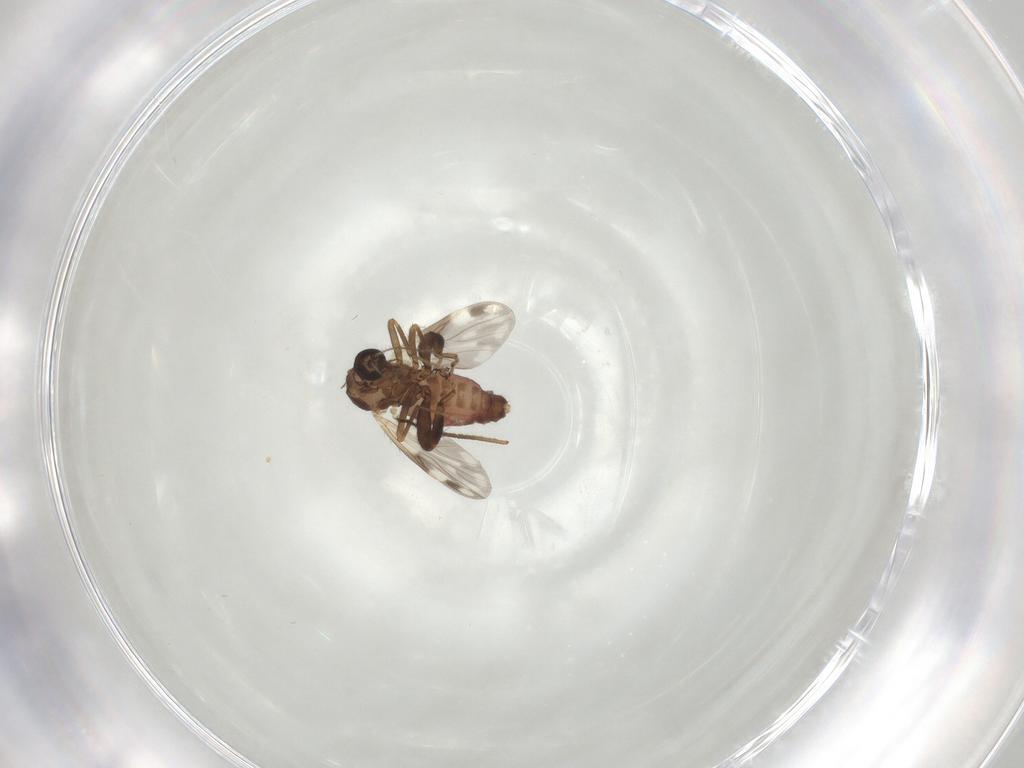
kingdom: Animalia
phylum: Arthropoda
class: Insecta
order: Diptera
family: Ceratopogonidae
